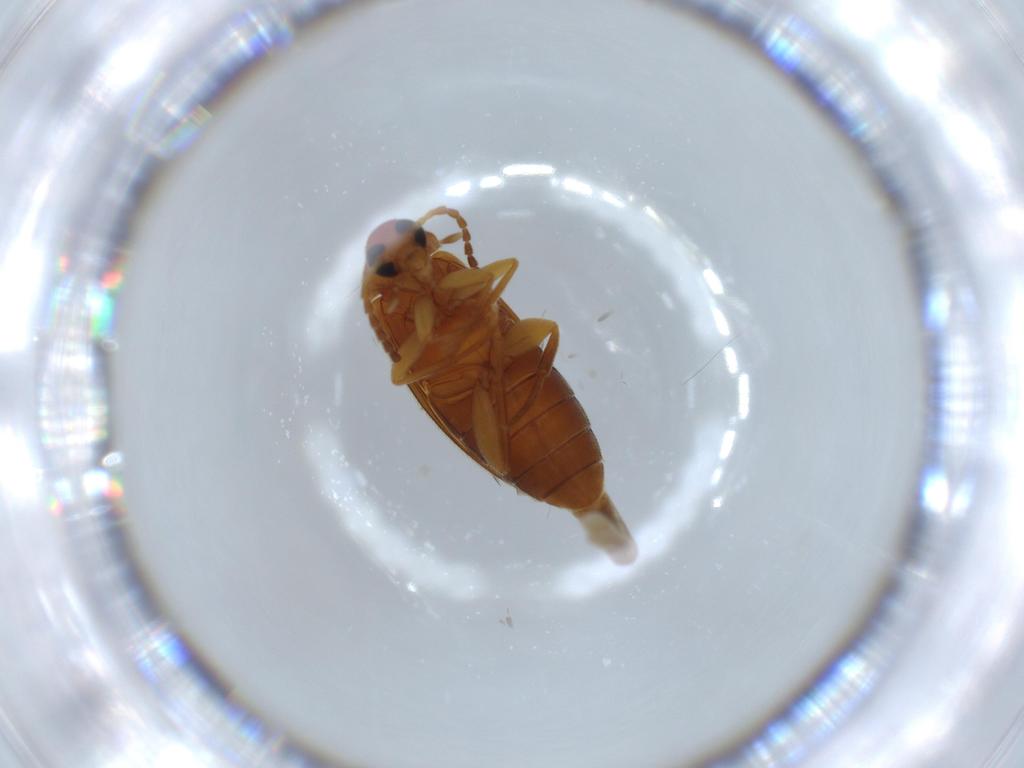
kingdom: Animalia
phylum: Arthropoda
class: Insecta
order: Coleoptera
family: Scraptiidae
